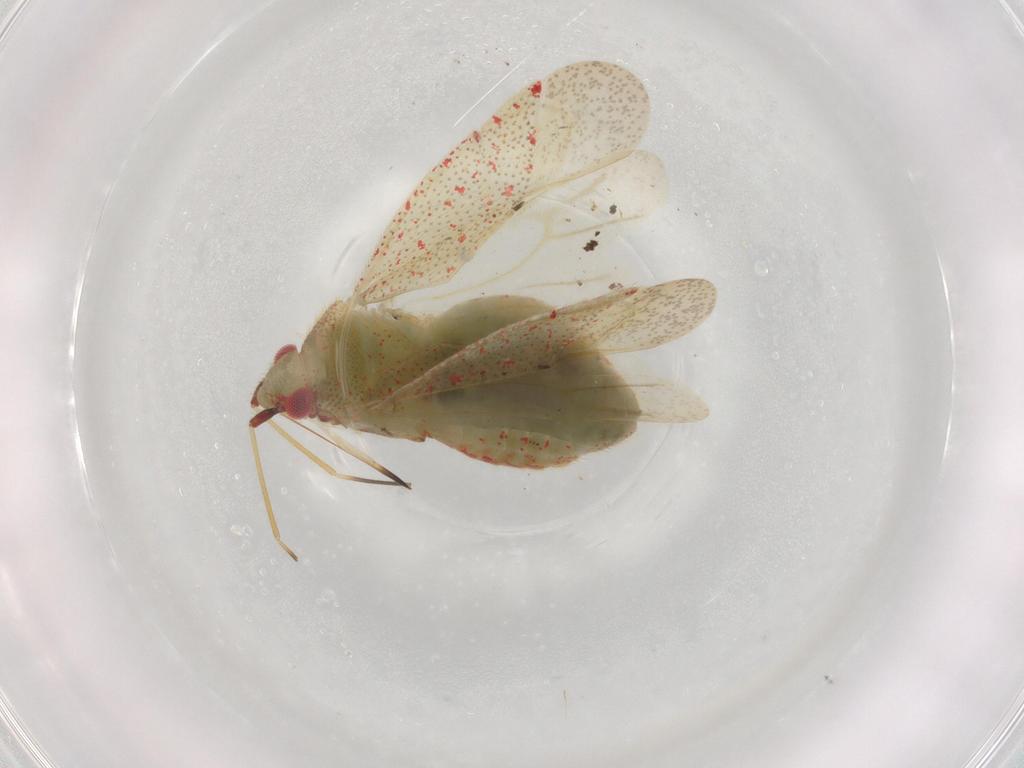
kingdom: Animalia
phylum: Arthropoda
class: Insecta
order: Hemiptera
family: Miridae
